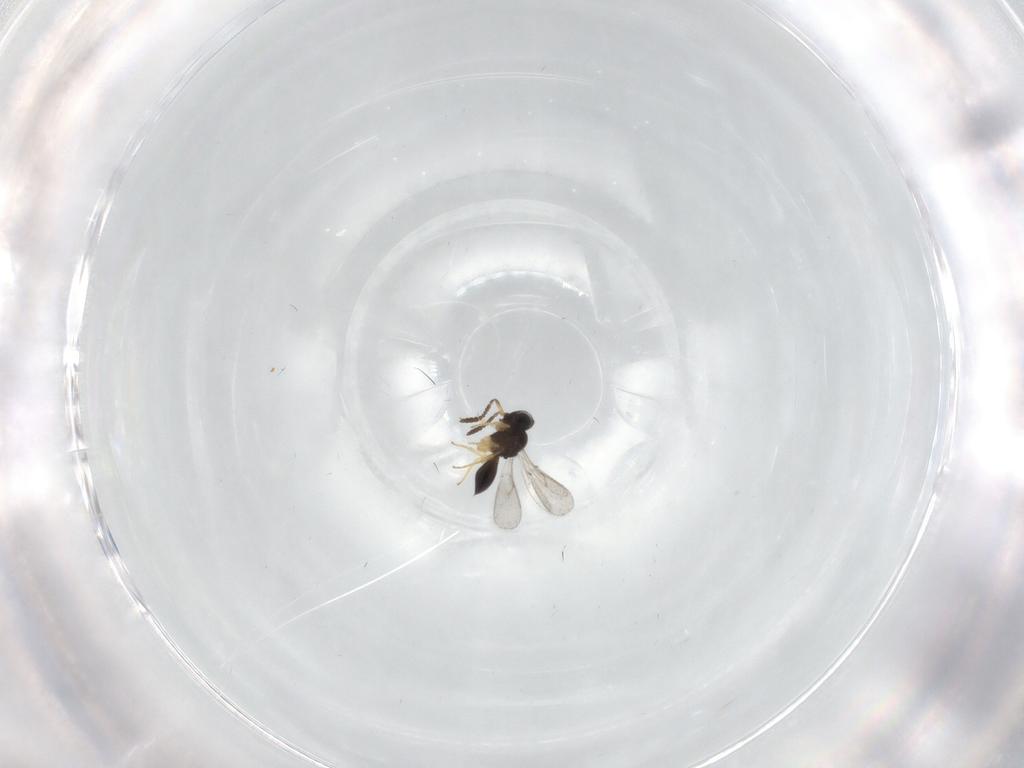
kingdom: Animalia
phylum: Arthropoda
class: Insecta
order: Hymenoptera
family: Scelionidae
